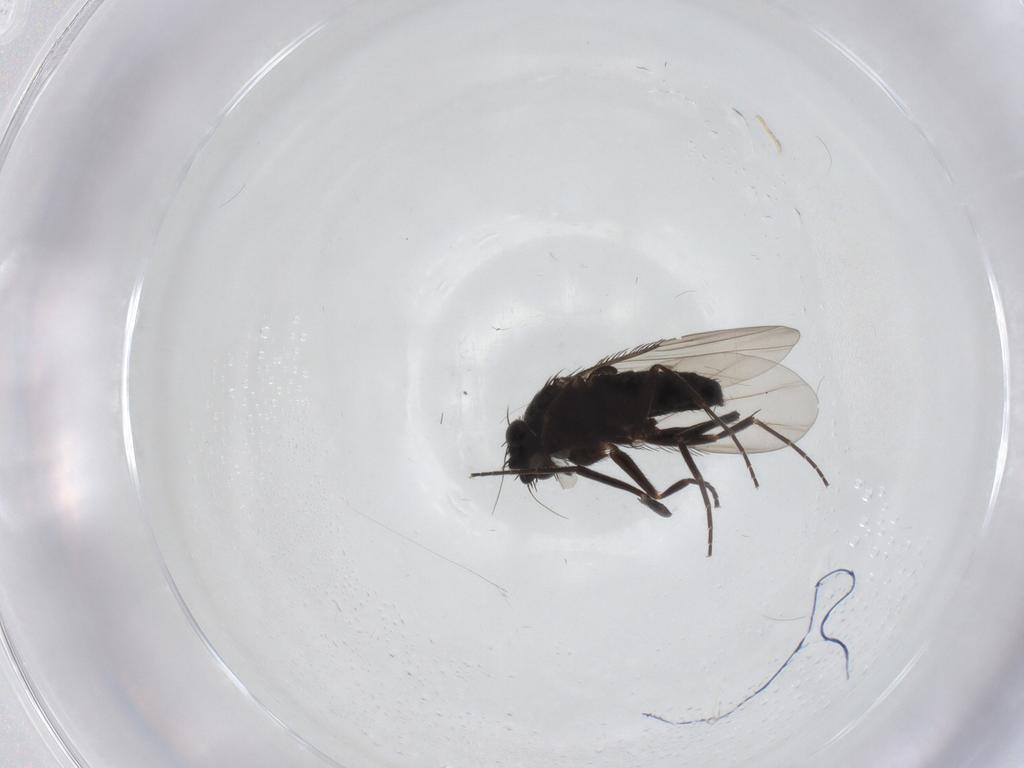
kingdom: Animalia
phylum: Arthropoda
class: Insecta
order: Diptera
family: Phoridae
